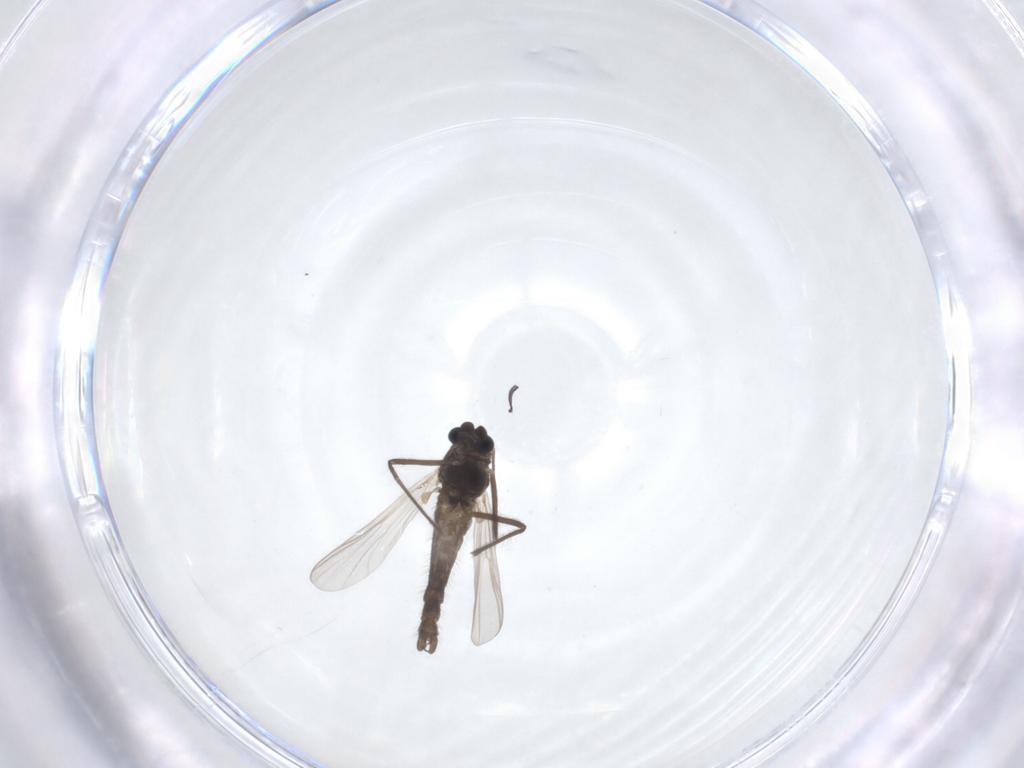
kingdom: Animalia
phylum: Arthropoda
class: Insecta
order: Diptera
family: Chironomidae
